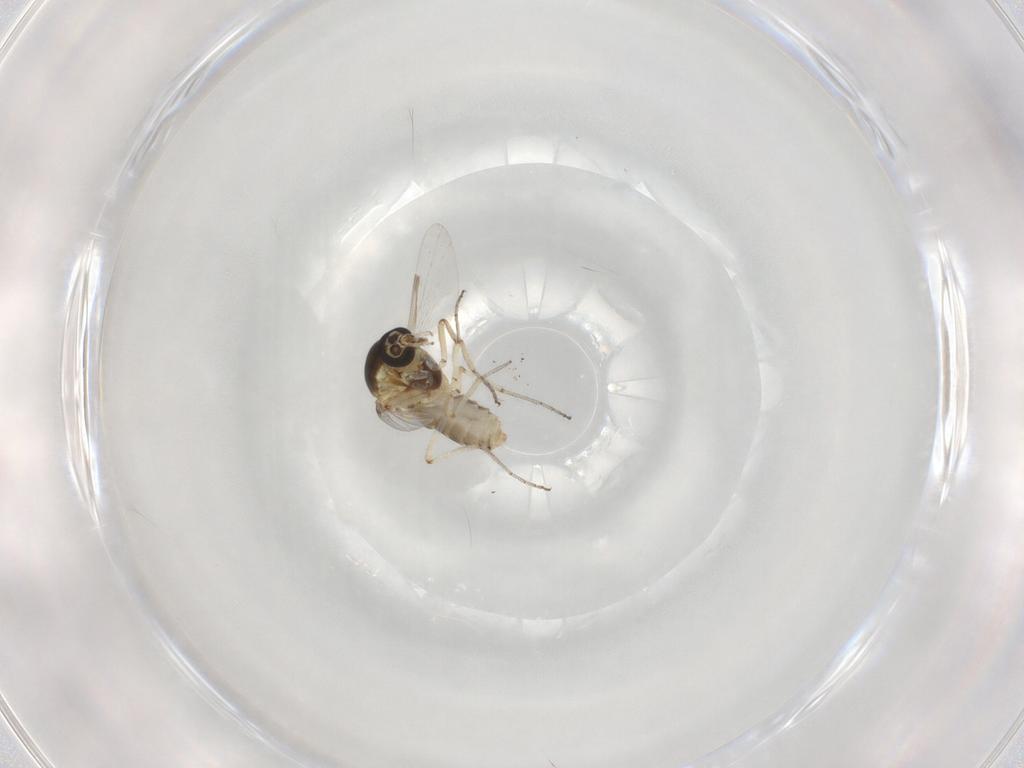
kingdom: Animalia
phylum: Arthropoda
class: Insecta
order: Diptera
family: Ceratopogonidae
